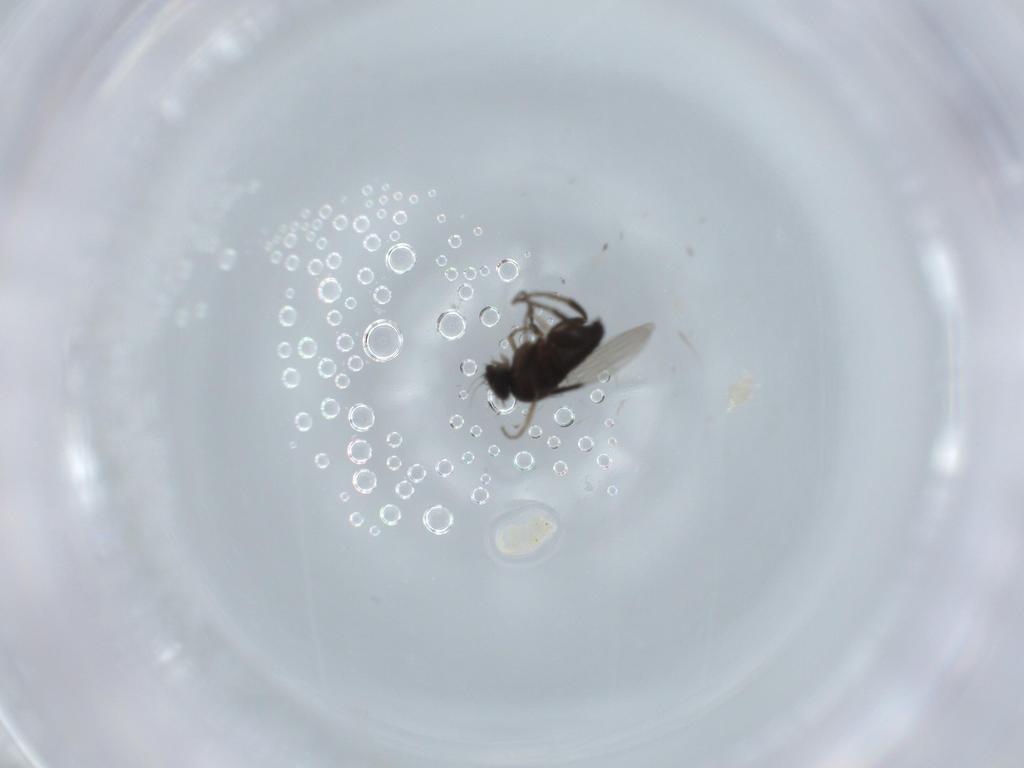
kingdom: Animalia
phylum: Arthropoda
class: Insecta
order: Diptera
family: Phoridae
